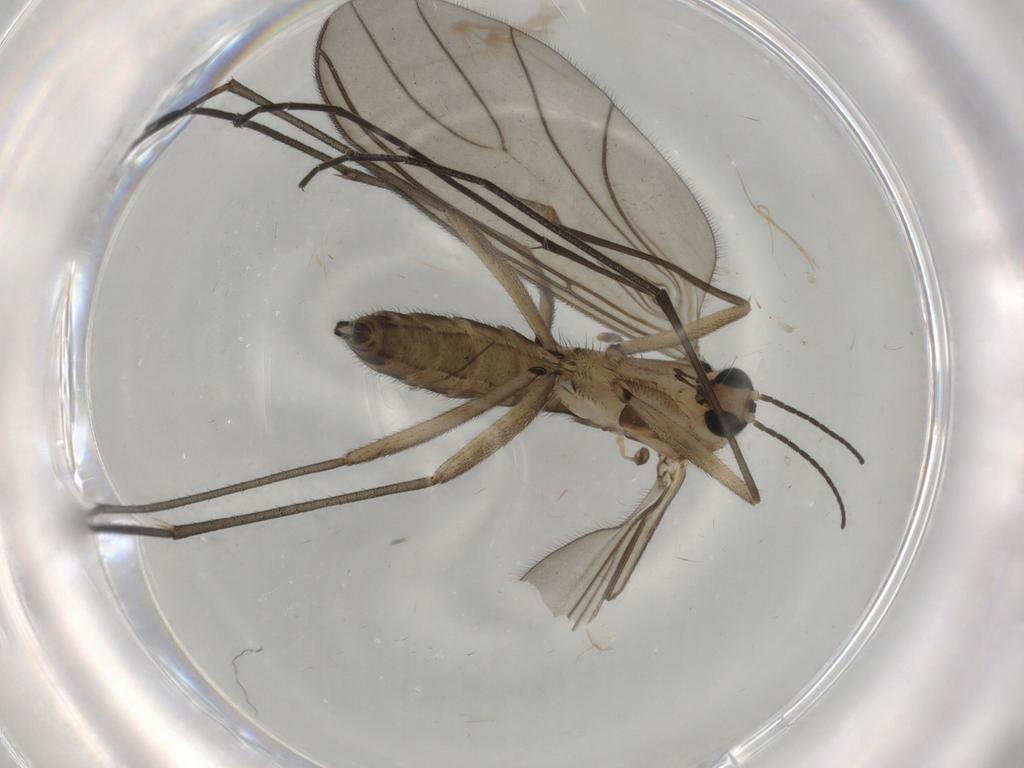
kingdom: Animalia
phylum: Arthropoda
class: Insecta
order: Diptera
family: Sciaridae
